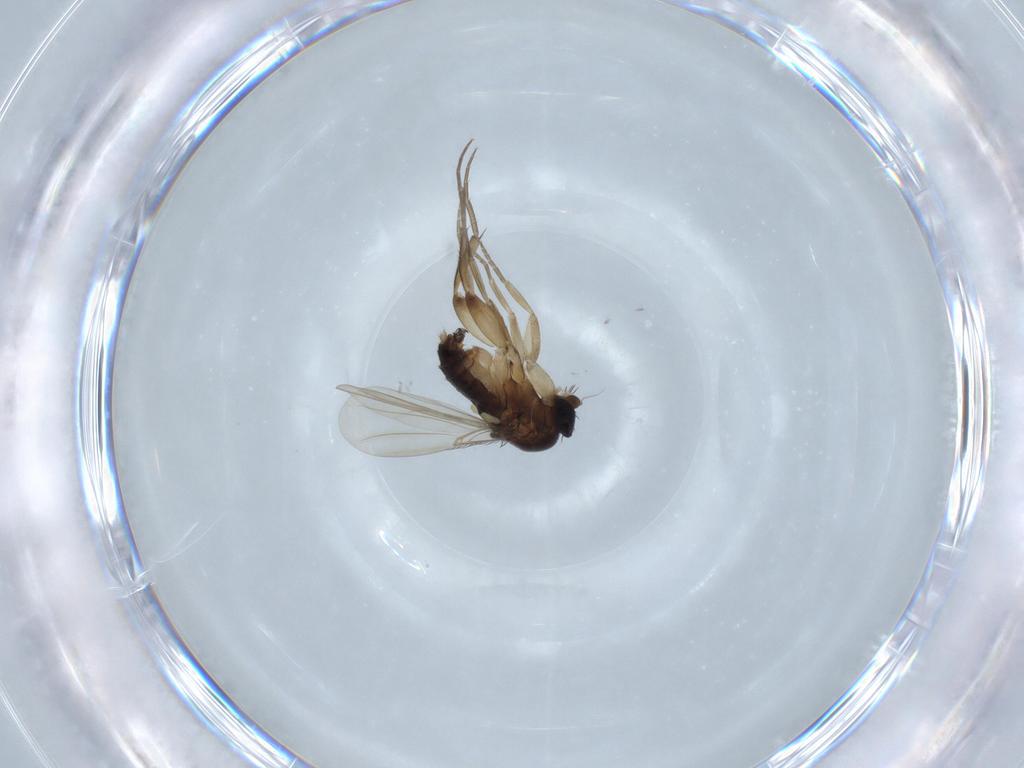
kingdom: Animalia
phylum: Arthropoda
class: Insecta
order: Diptera
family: Phoridae
